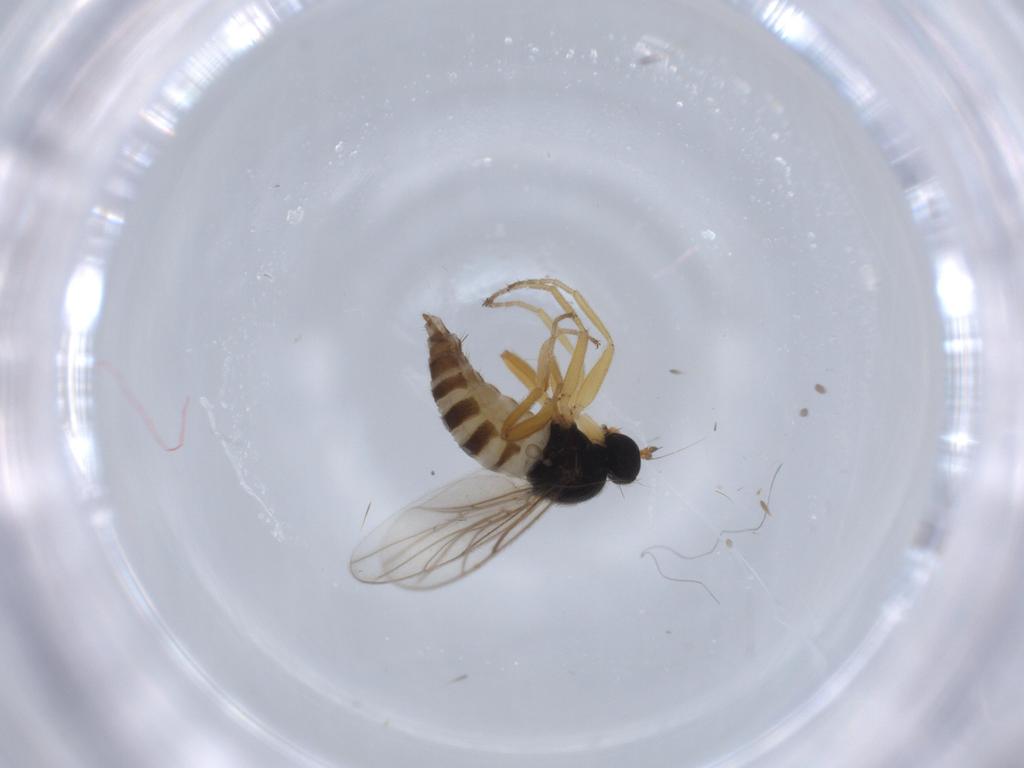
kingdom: Animalia
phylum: Arthropoda
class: Insecta
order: Diptera
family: Hybotidae
